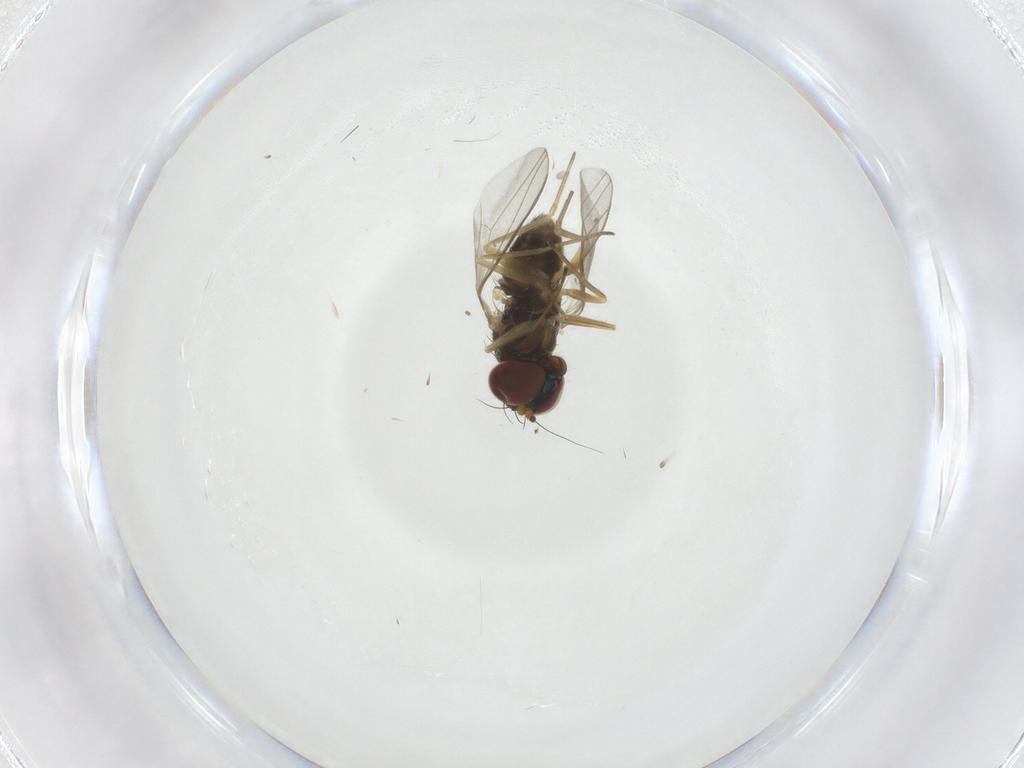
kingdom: Animalia
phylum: Arthropoda
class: Insecta
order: Diptera
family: Dolichopodidae
